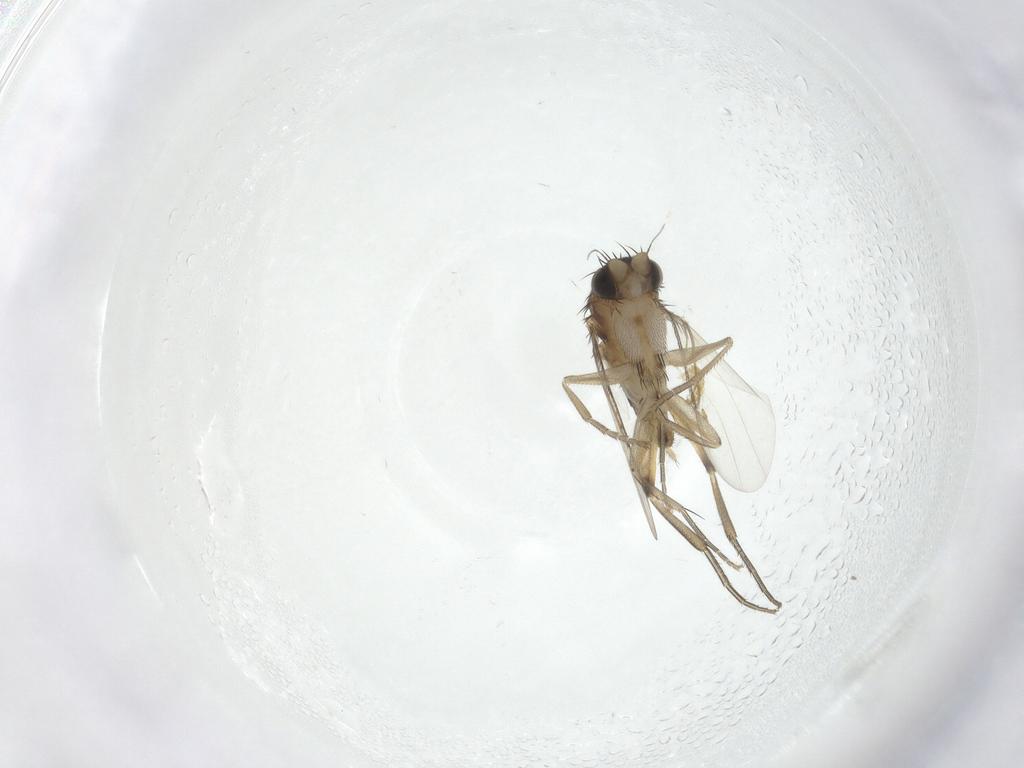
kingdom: Animalia
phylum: Arthropoda
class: Insecta
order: Diptera
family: Phoridae
